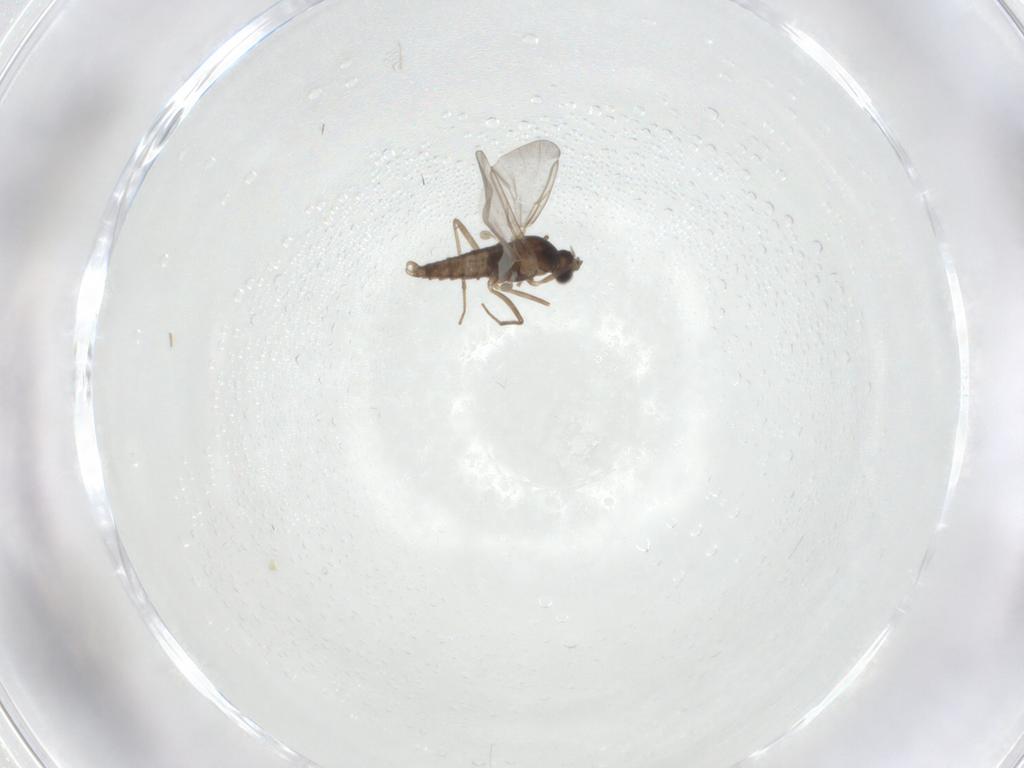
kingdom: Animalia
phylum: Arthropoda
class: Insecta
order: Diptera
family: Cecidomyiidae
